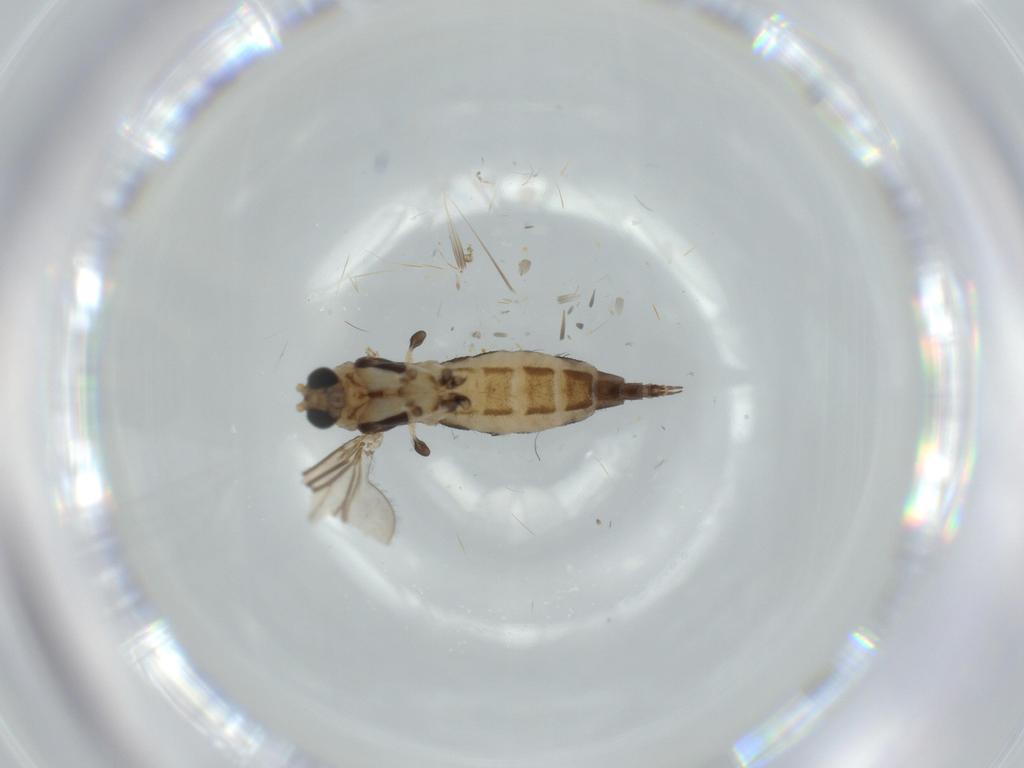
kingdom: Animalia
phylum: Arthropoda
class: Insecta
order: Diptera
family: Sciaridae
